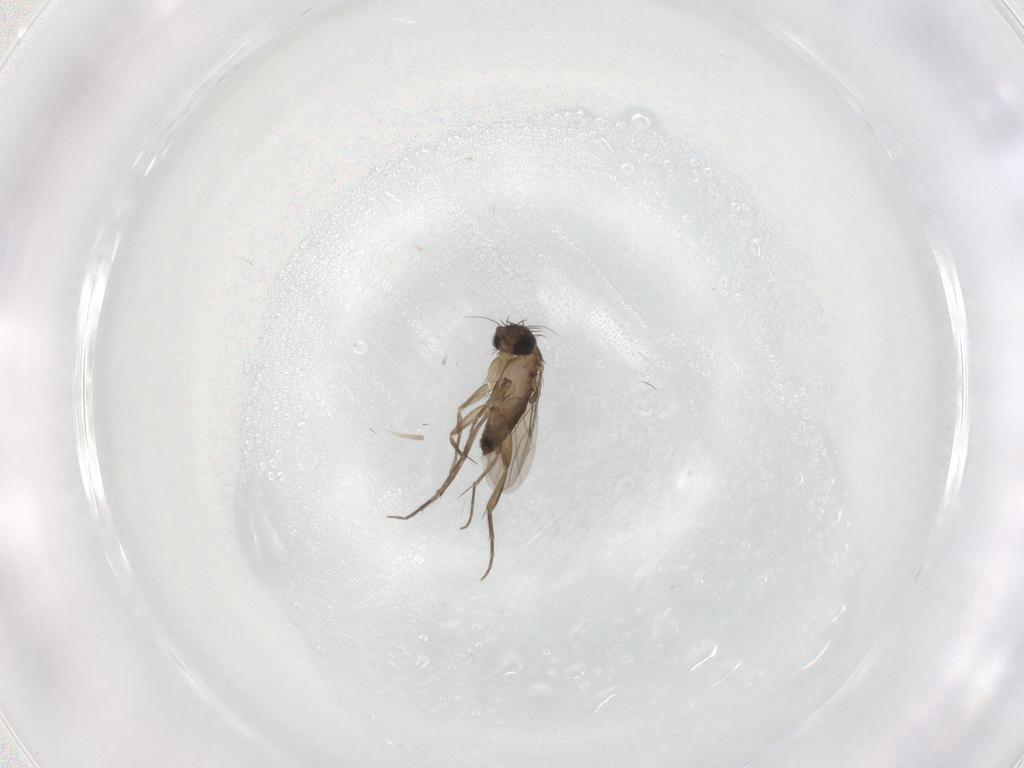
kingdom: Animalia
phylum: Arthropoda
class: Insecta
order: Diptera
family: Phoridae
